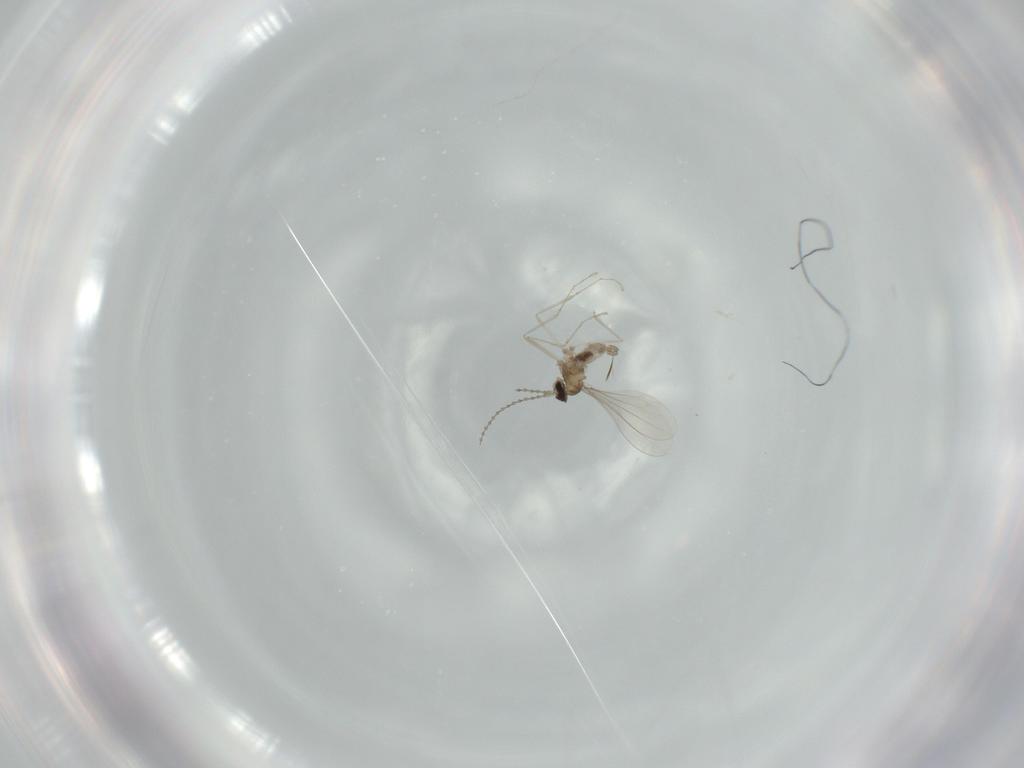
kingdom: Animalia
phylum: Arthropoda
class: Insecta
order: Diptera
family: Cecidomyiidae
